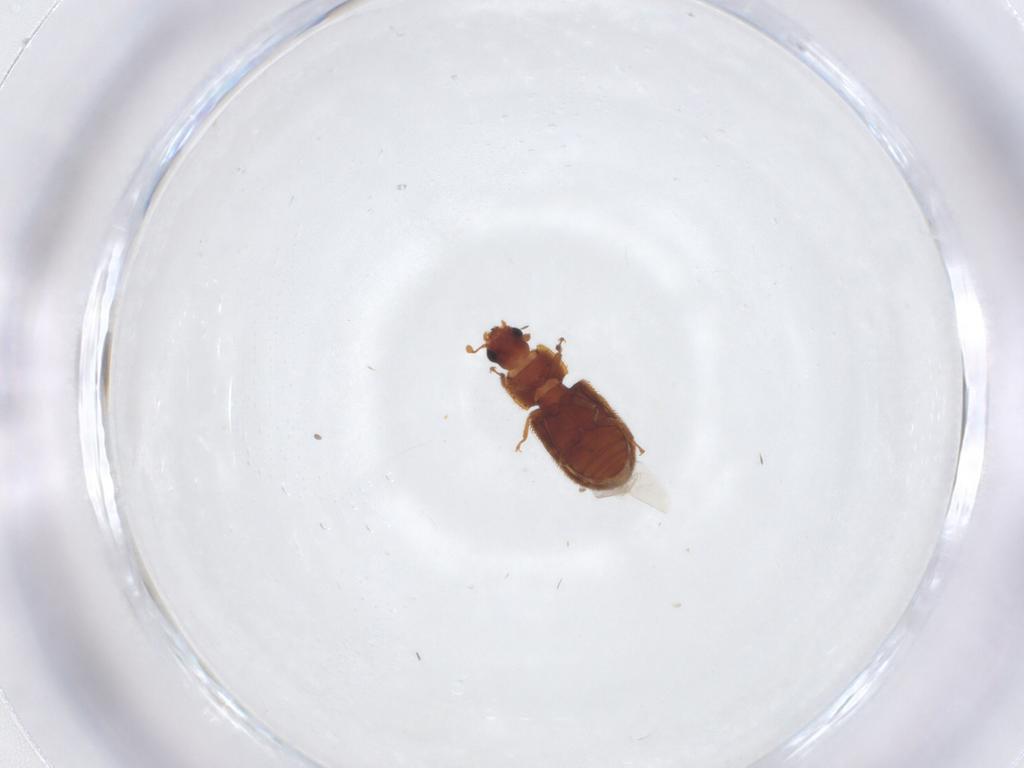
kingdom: Animalia
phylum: Arthropoda
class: Insecta
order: Coleoptera
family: Zopheridae
